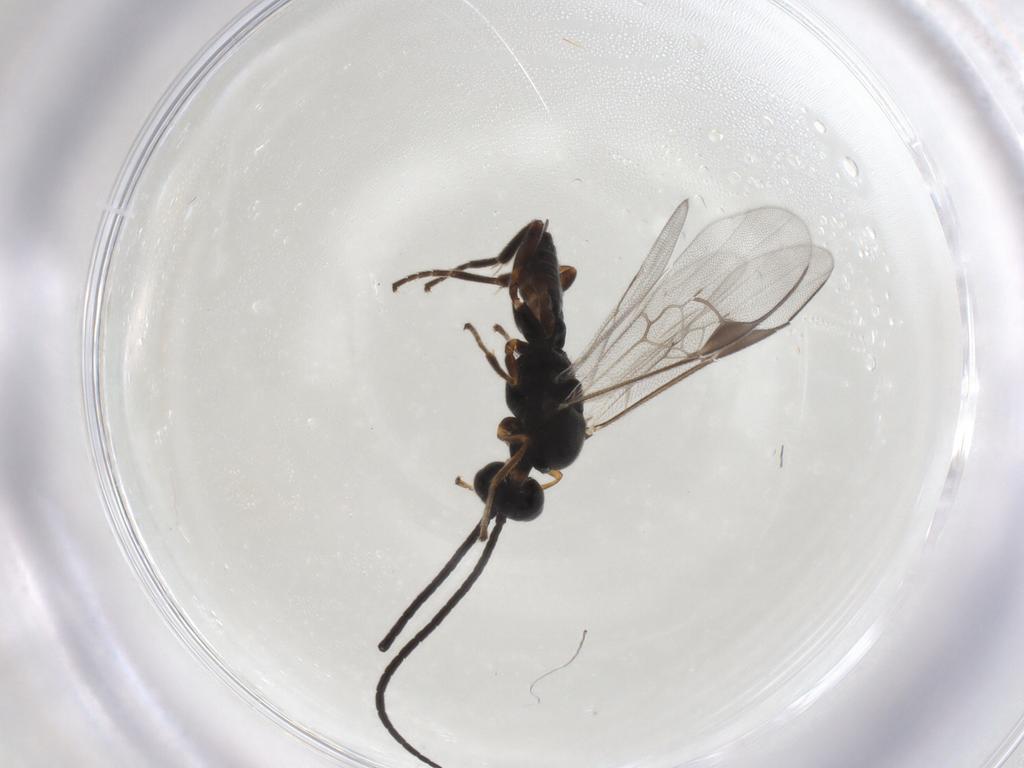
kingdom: Animalia
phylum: Arthropoda
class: Insecta
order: Hymenoptera
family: Braconidae
